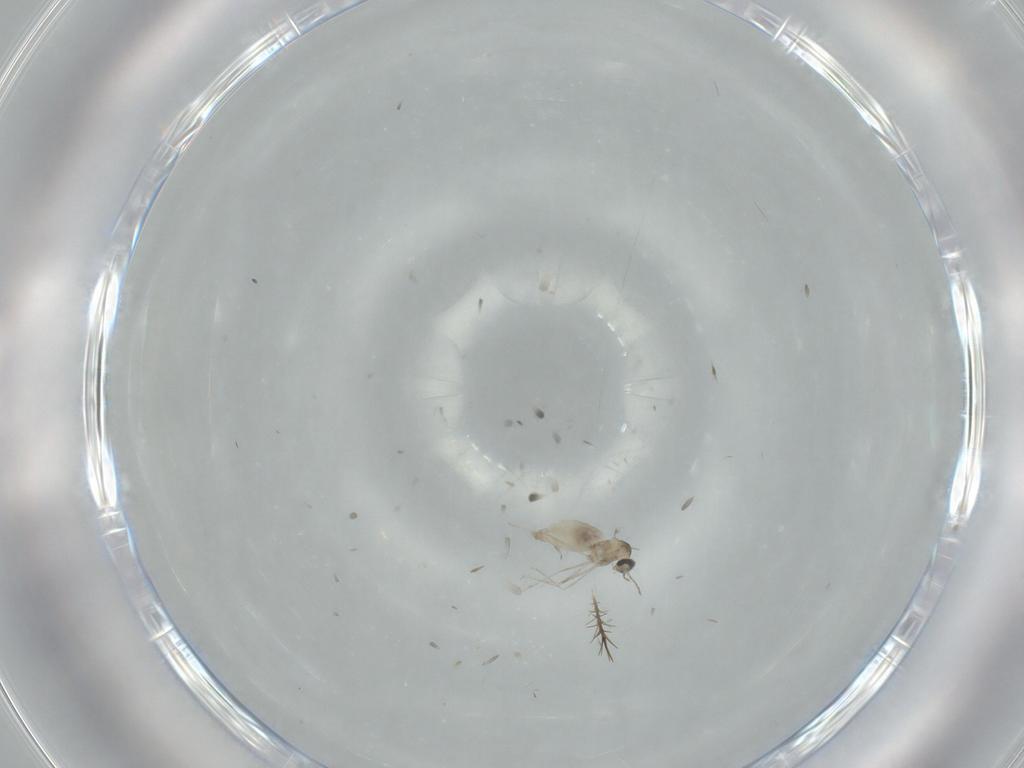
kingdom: Animalia
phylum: Arthropoda
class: Insecta
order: Diptera
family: Cecidomyiidae
